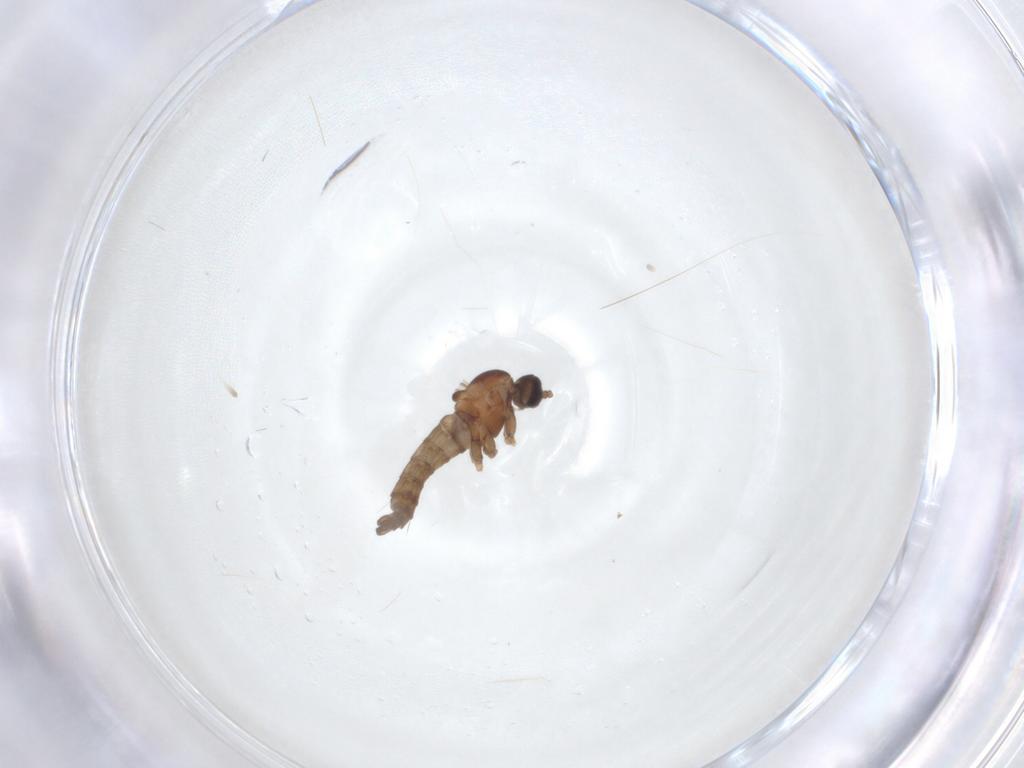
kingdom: Animalia
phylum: Arthropoda
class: Insecta
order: Diptera
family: Cecidomyiidae
